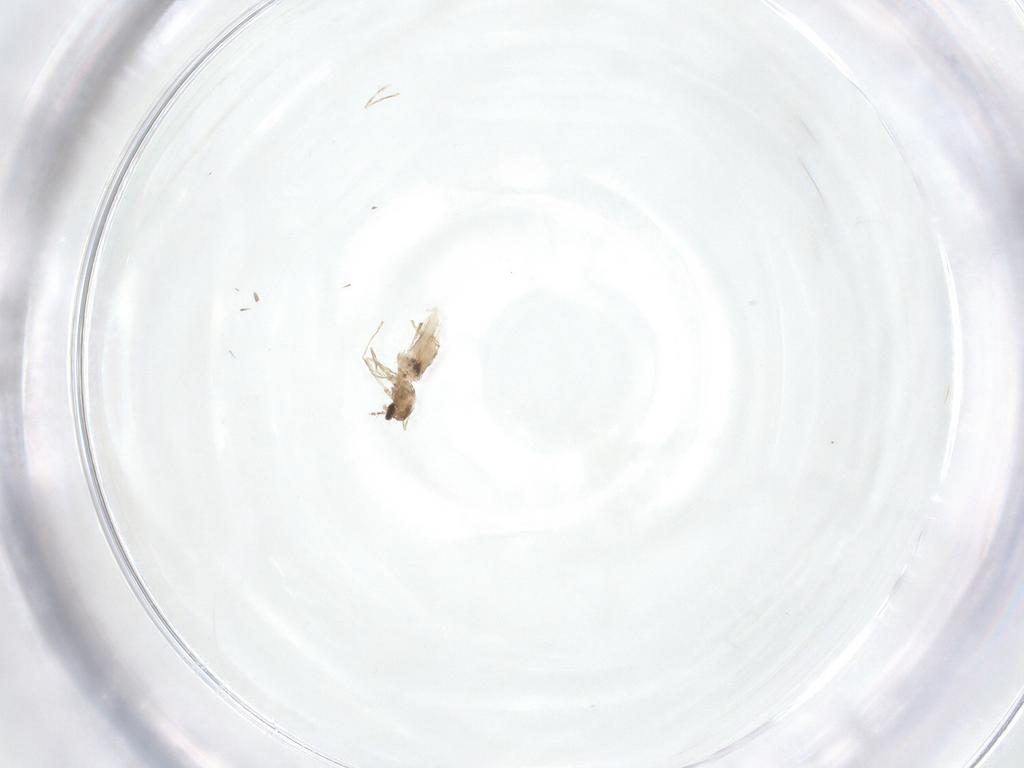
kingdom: Animalia
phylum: Arthropoda
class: Insecta
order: Diptera
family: Cecidomyiidae
